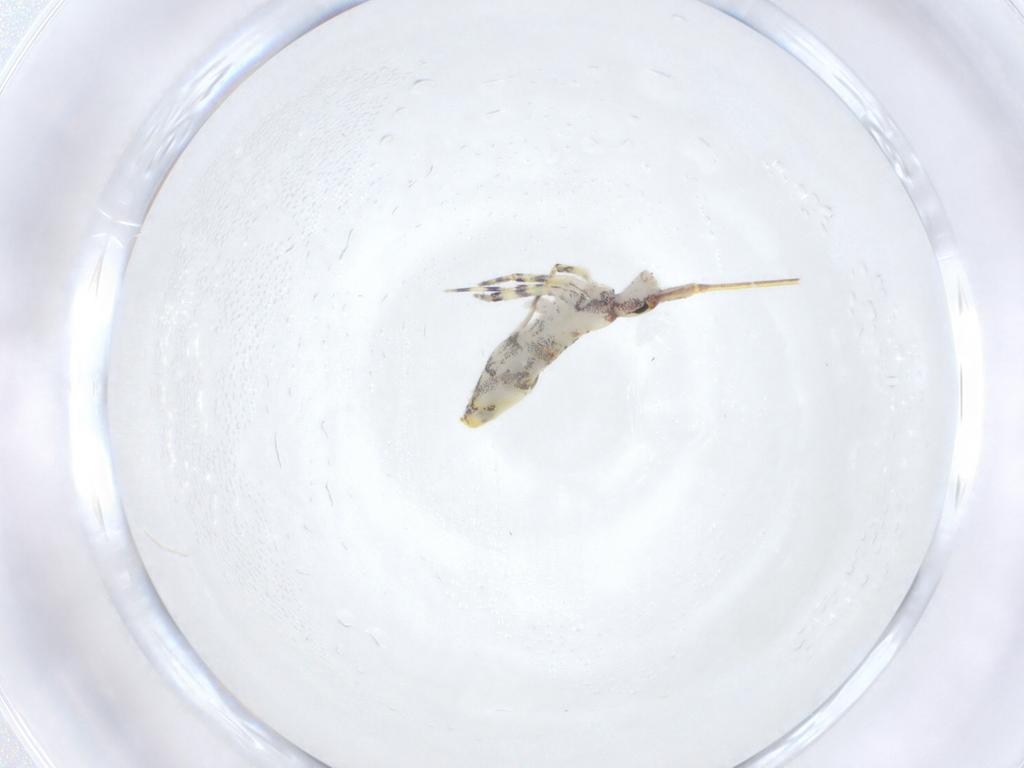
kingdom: Animalia
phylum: Arthropoda
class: Collembola
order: Entomobryomorpha
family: Entomobryidae
